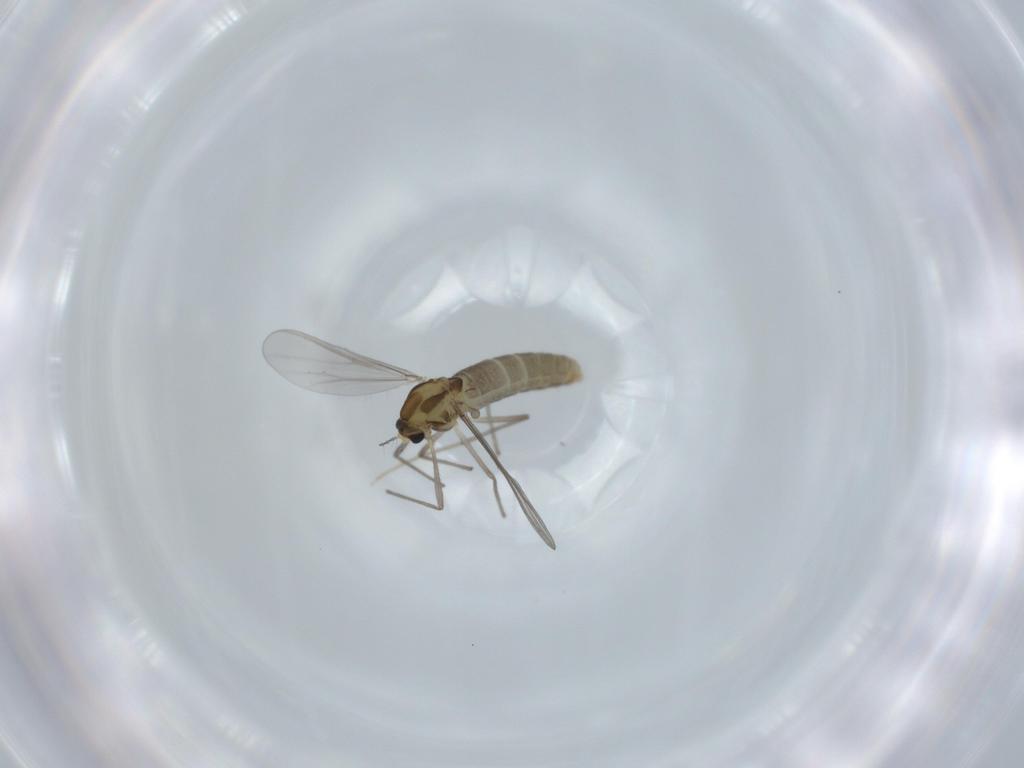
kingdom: Animalia
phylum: Arthropoda
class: Insecta
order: Diptera
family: Chironomidae
